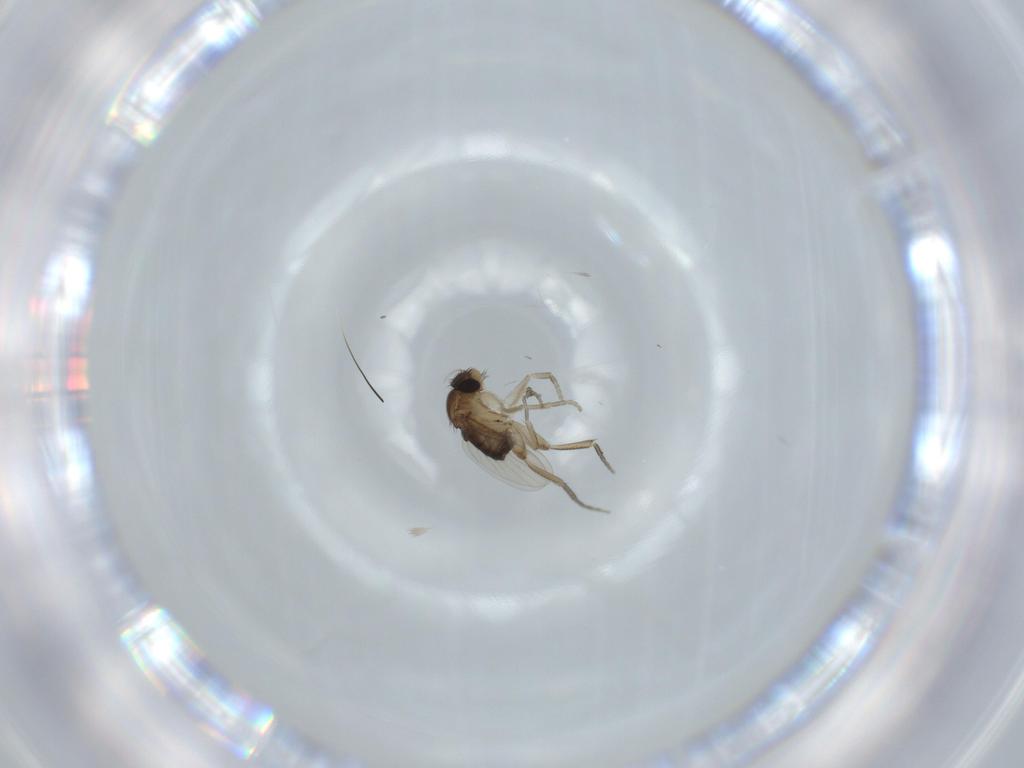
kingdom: Animalia
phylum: Arthropoda
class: Insecta
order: Diptera
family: Phoridae
